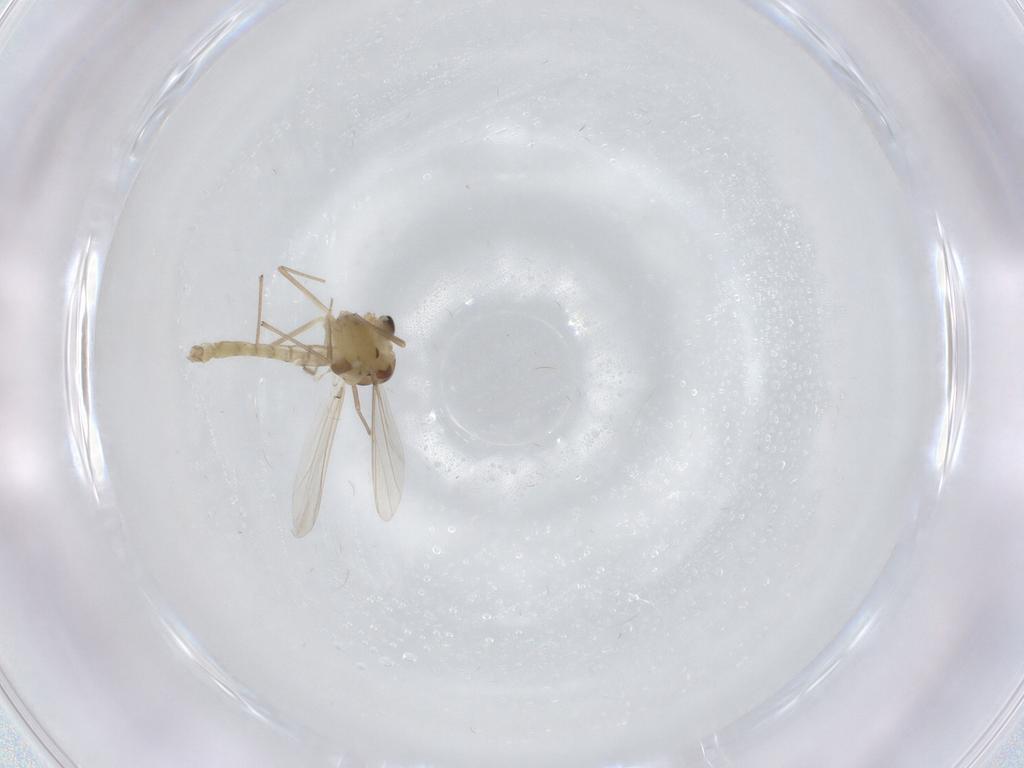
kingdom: Animalia
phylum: Arthropoda
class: Insecta
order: Diptera
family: Chironomidae
